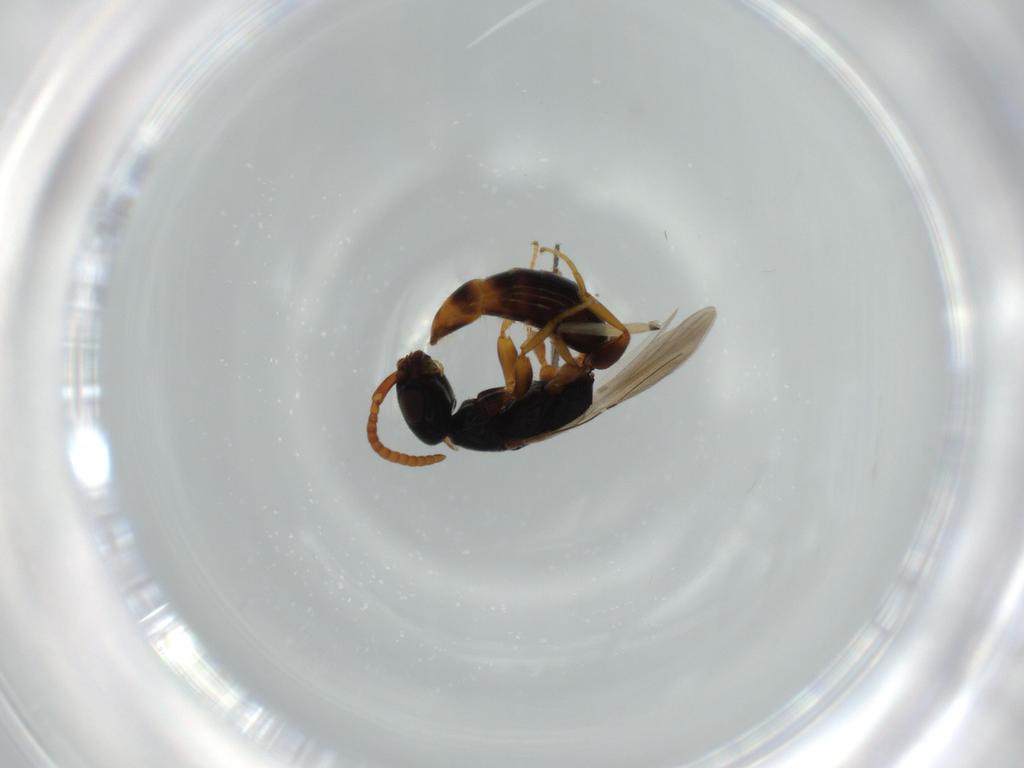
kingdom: Animalia
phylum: Arthropoda
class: Insecta
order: Hymenoptera
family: Bethylidae
